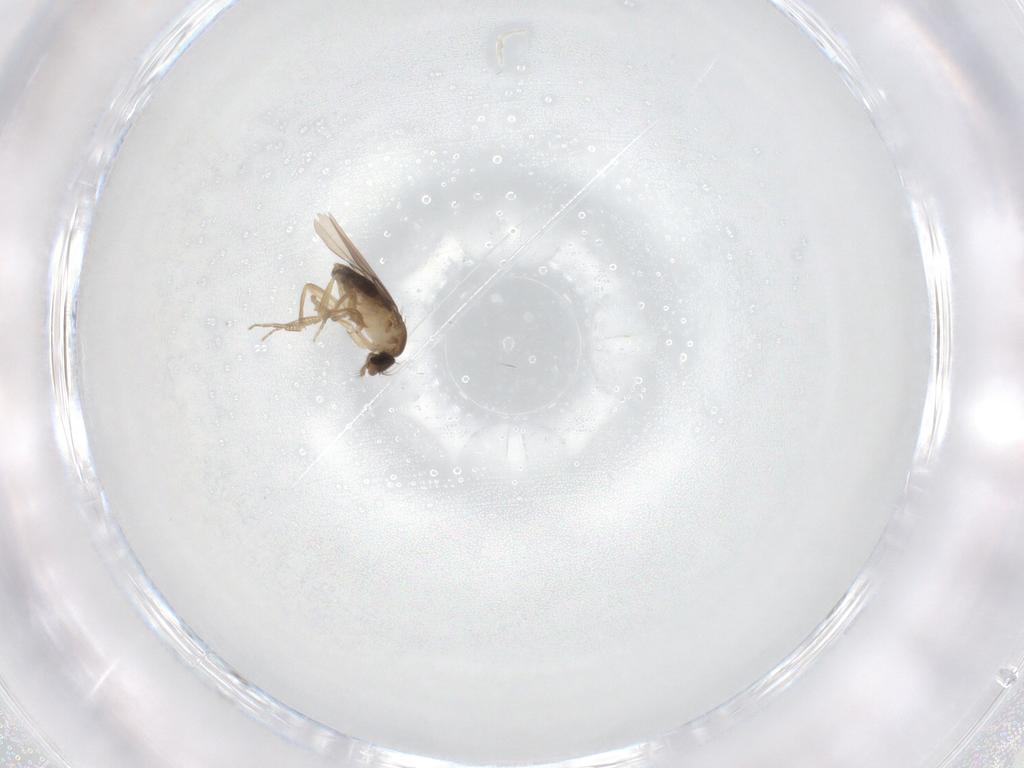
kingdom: Animalia
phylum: Arthropoda
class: Insecta
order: Diptera
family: Phoridae
